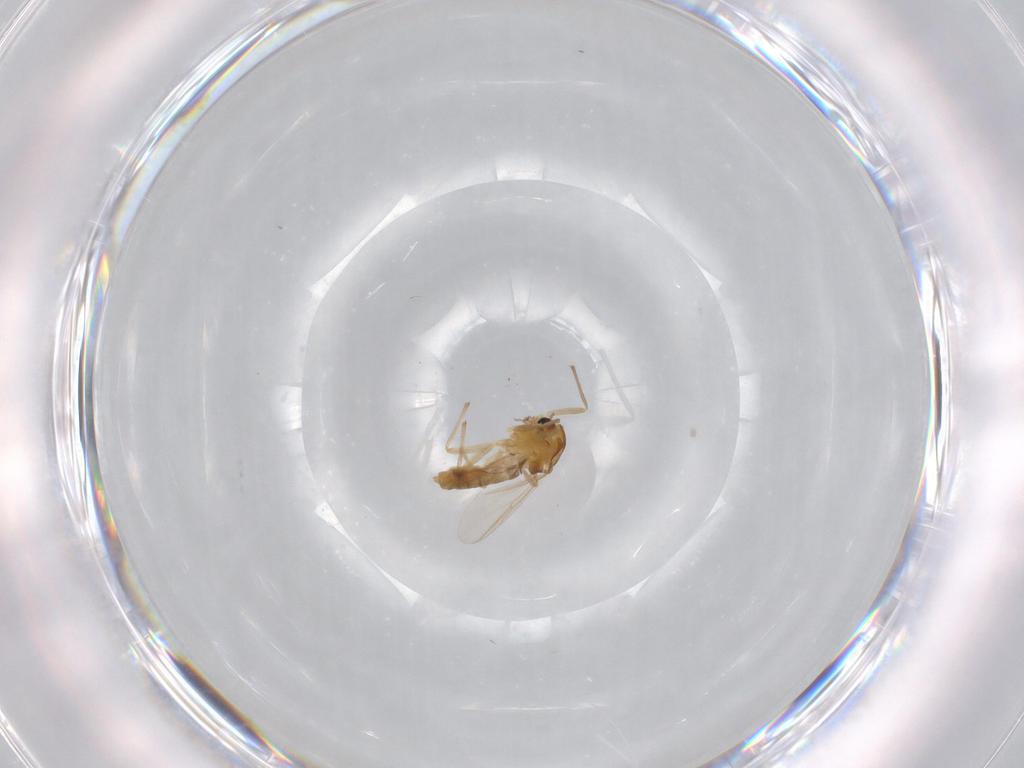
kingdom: Animalia
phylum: Arthropoda
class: Insecta
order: Diptera
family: Chironomidae
